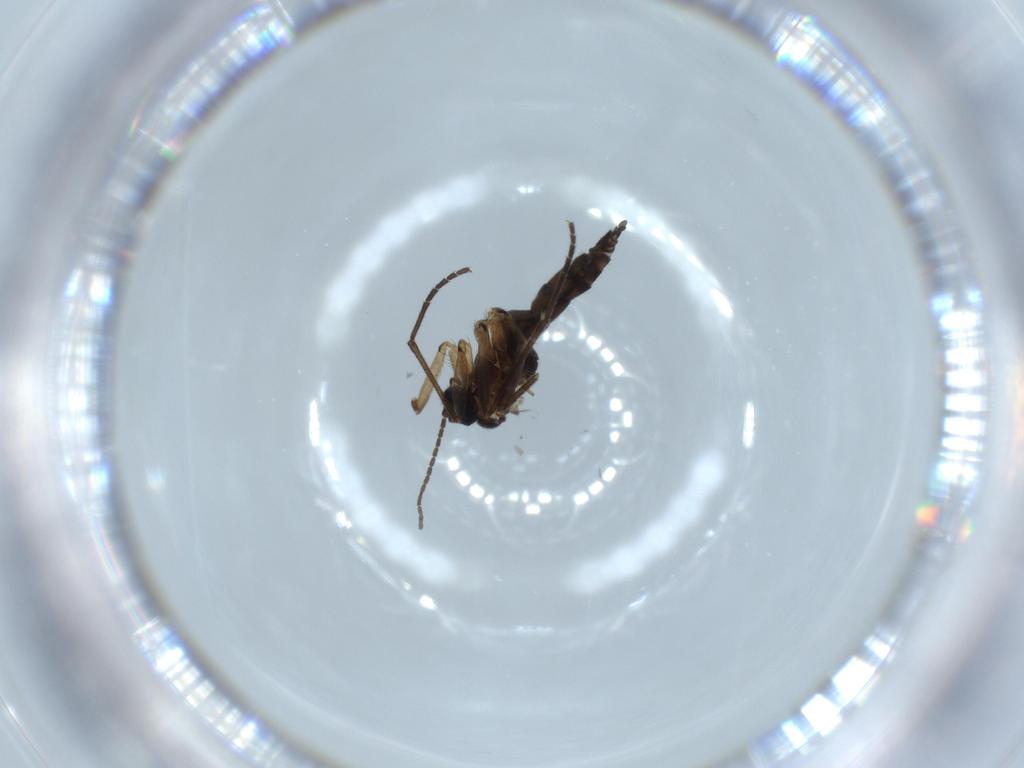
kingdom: Animalia
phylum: Arthropoda
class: Insecta
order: Diptera
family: Sciaridae
